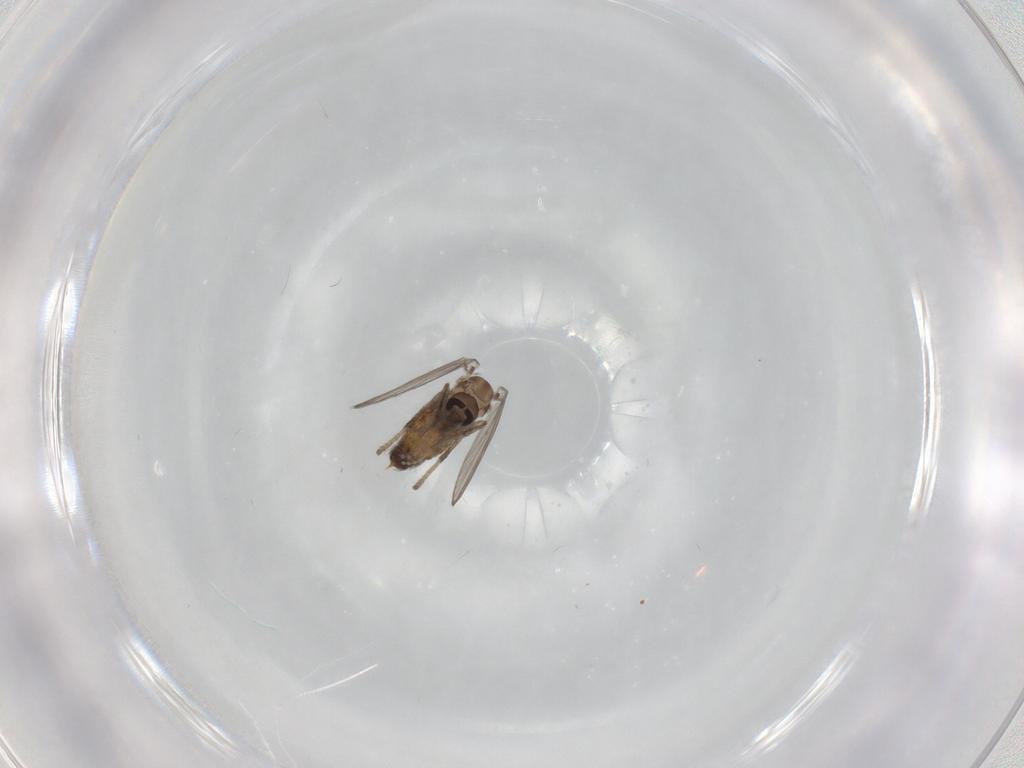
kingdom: Animalia
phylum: Arthropoda
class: Insecta
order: Diptera
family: Psychodidae
